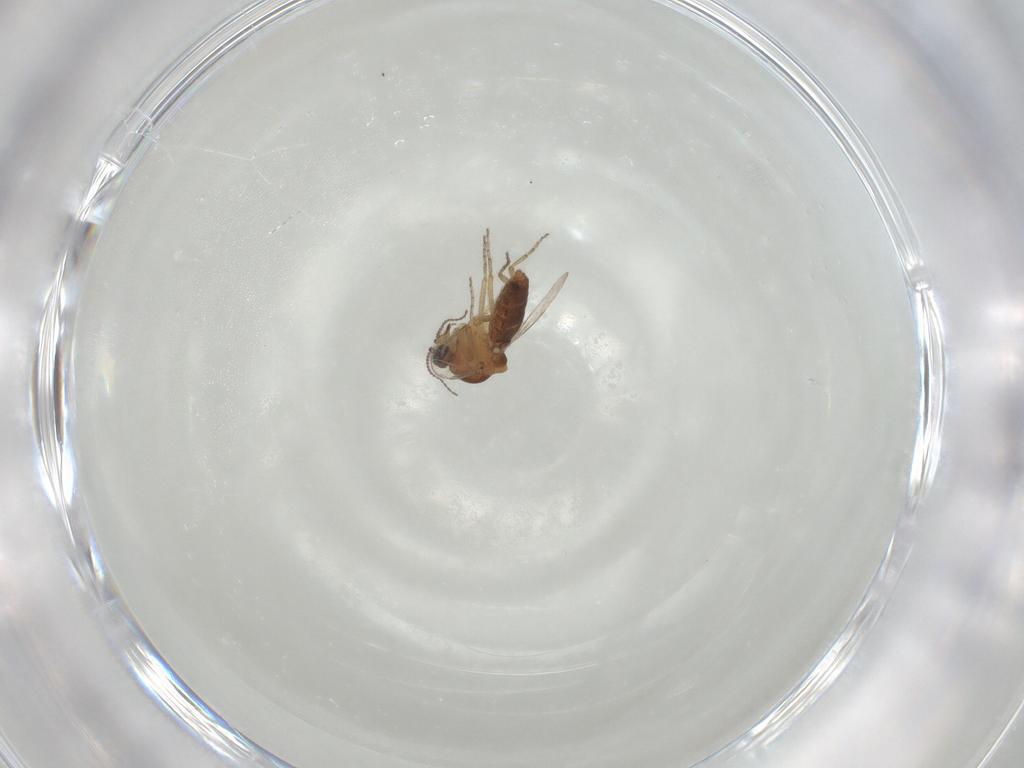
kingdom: Animalia
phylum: Arthropoda
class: Insecta
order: Diptera
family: Ceratopogonidae
